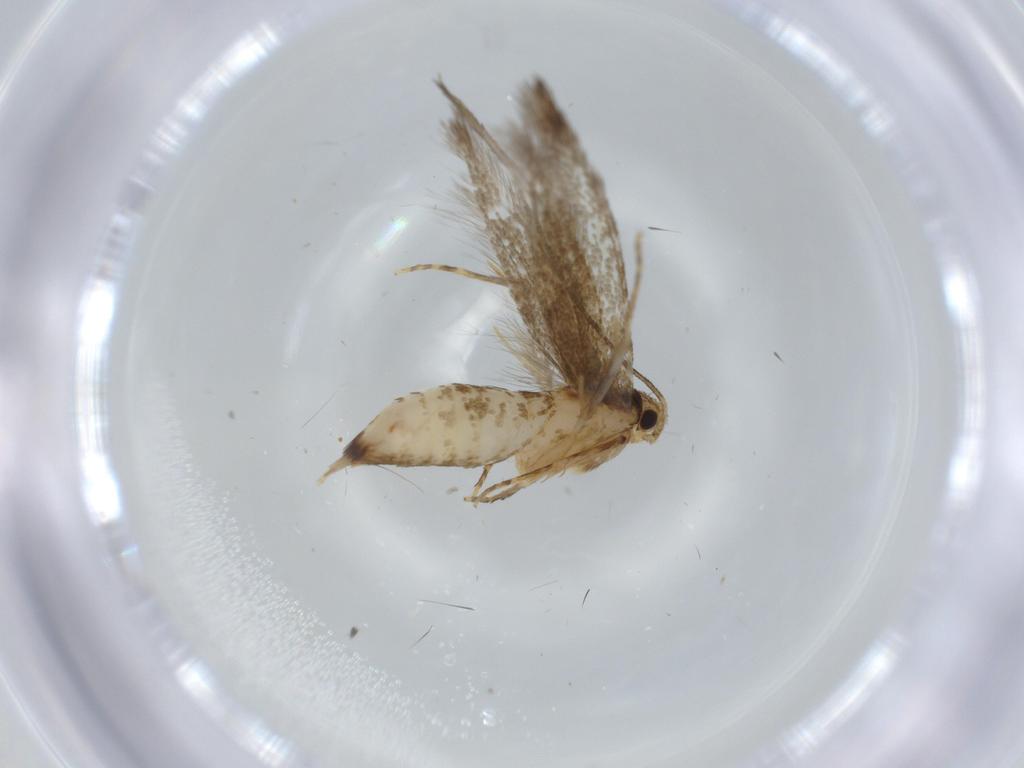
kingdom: Animalia
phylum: Arthropoda
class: Insecta
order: Lepidoptera
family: Tineidae
